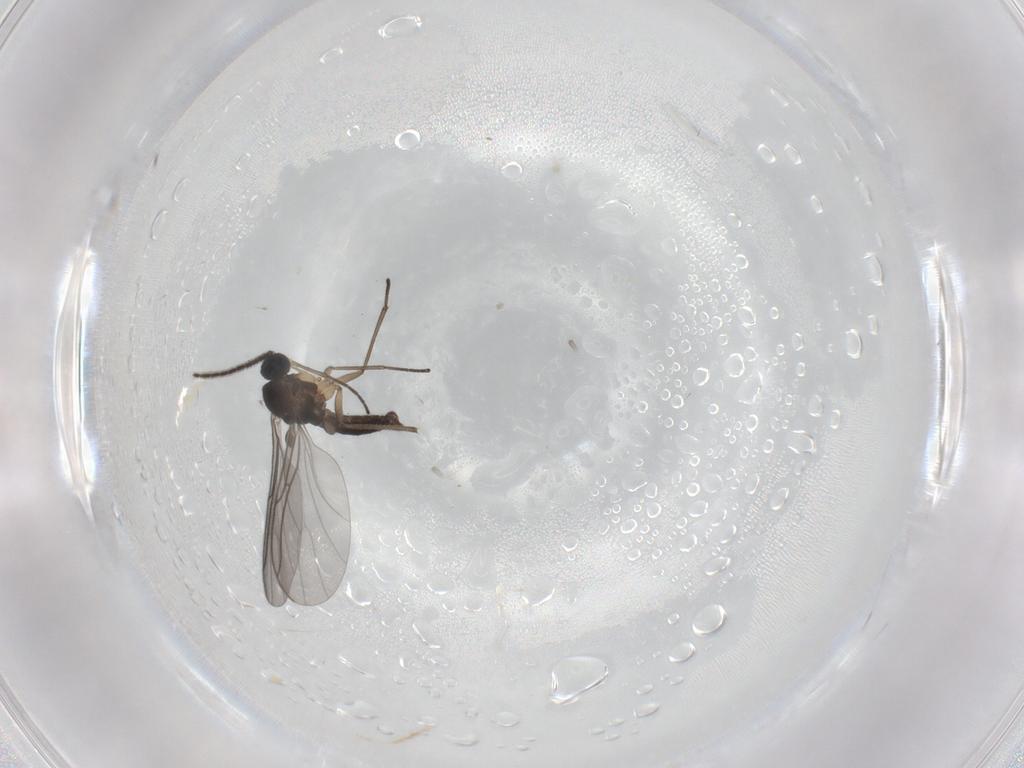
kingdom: Animalia
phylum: Arthropoda
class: Insecta
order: Diptera
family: Sciaridae
